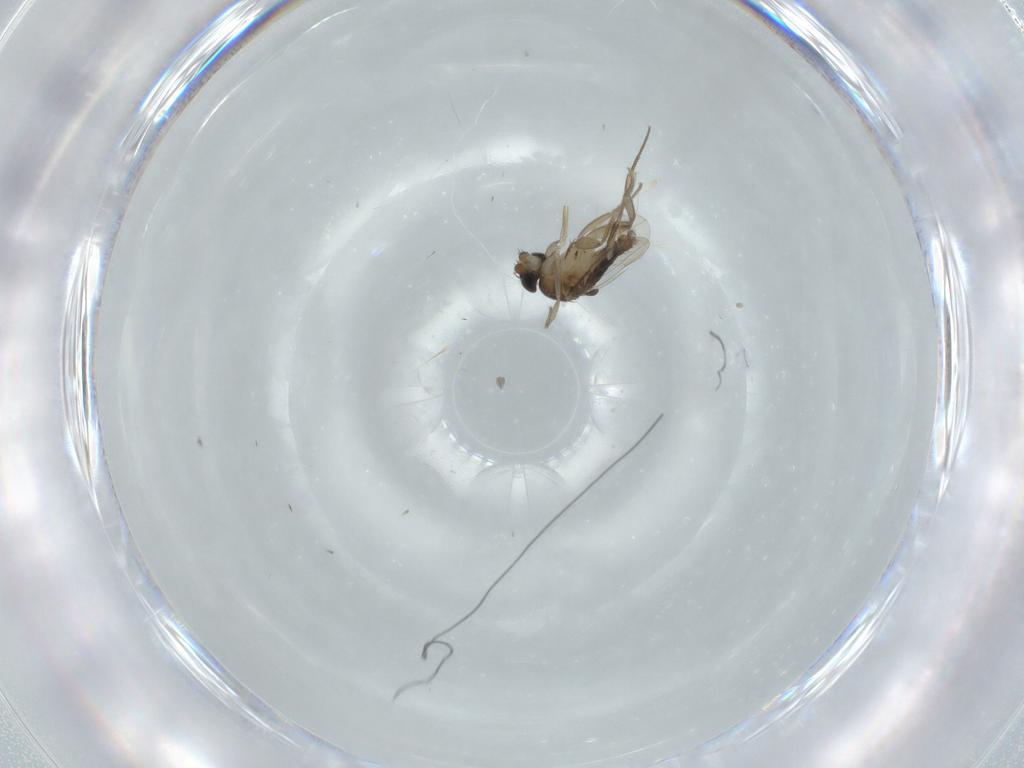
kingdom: Animalia
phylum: Arthropoda
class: Insecta
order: Diptera
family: Phoridae
